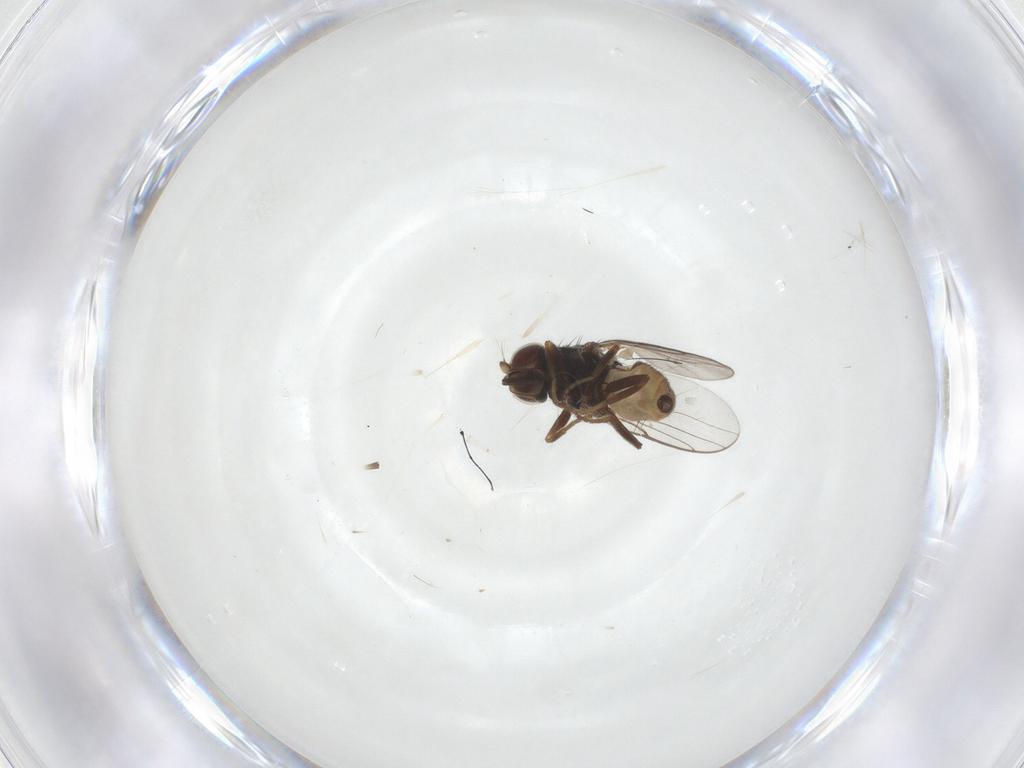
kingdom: Animalia
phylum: Arthropoda
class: Insecta
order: Diptera
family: Chloropidae
